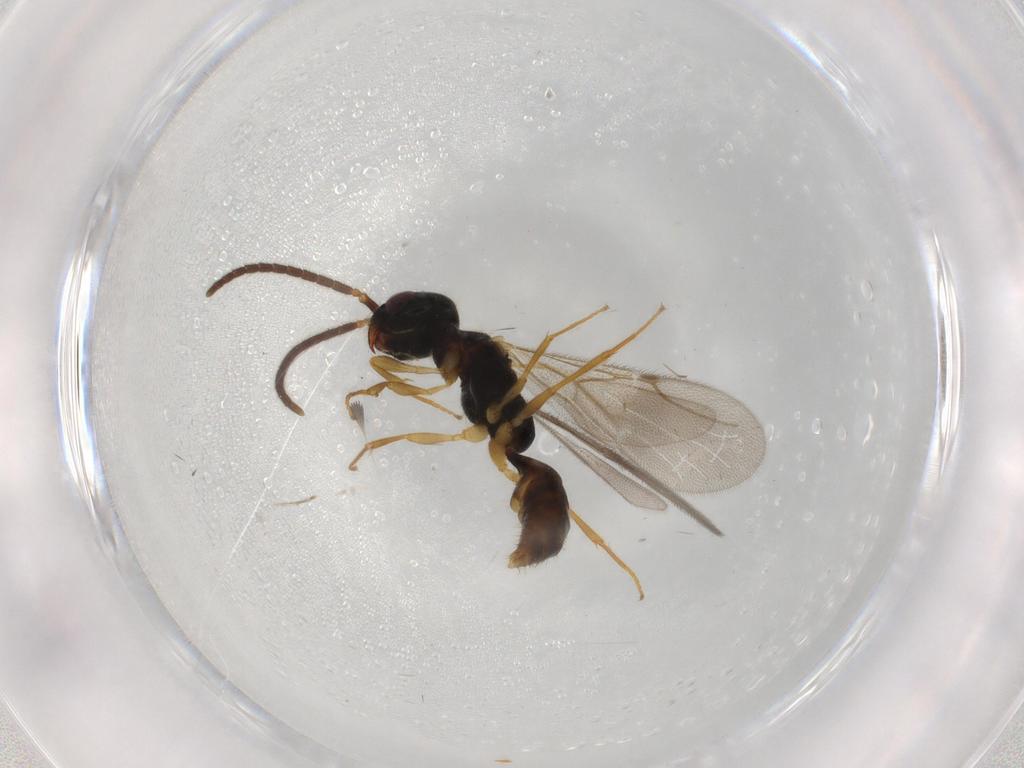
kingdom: Animalia
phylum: Arthropoda
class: Insecta
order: Hymenoptera
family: Bethylidae
